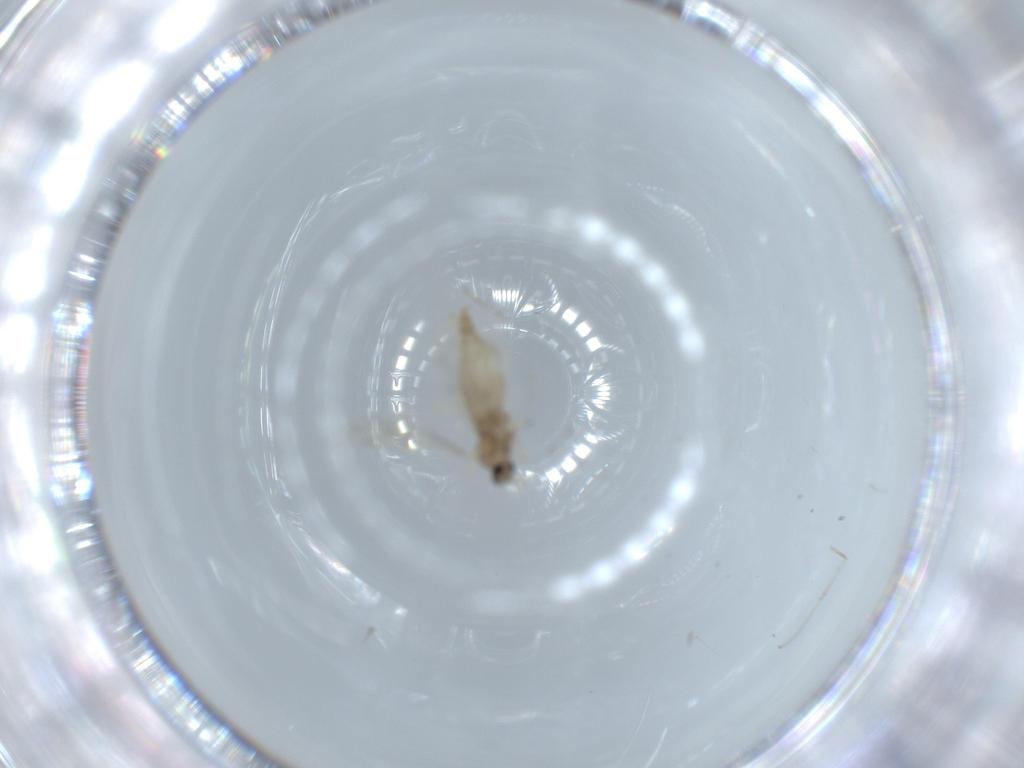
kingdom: Animalia
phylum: Arthropoda
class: Insecta
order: Diptera
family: Cecidomyiidae
